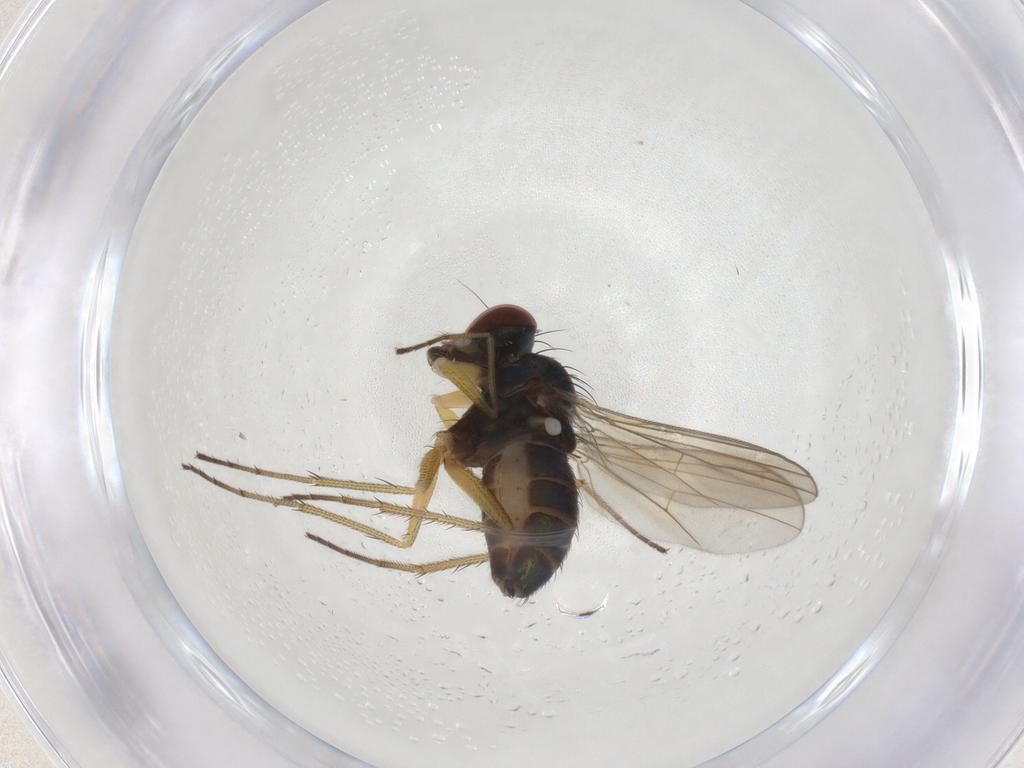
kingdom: Animalia
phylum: Arthropoda
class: Insecta
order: Diptera
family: Dolichopodidae
